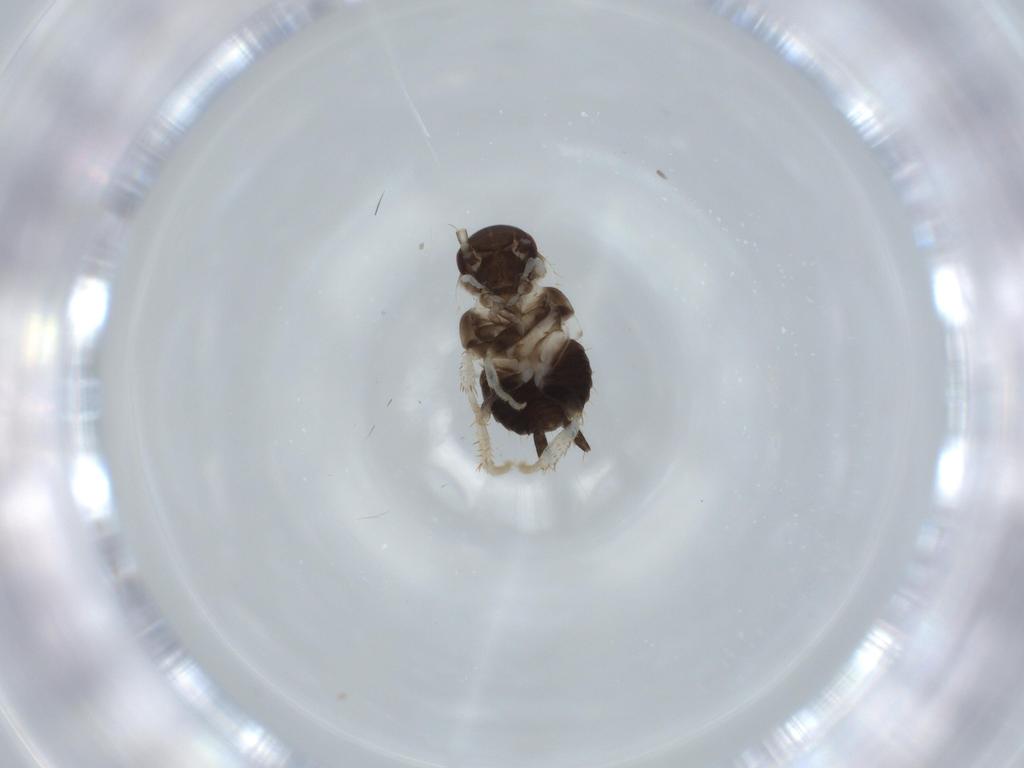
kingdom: Animalia
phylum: Arthropoda
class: Insecta
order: Blattodea
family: Ectobiidae
